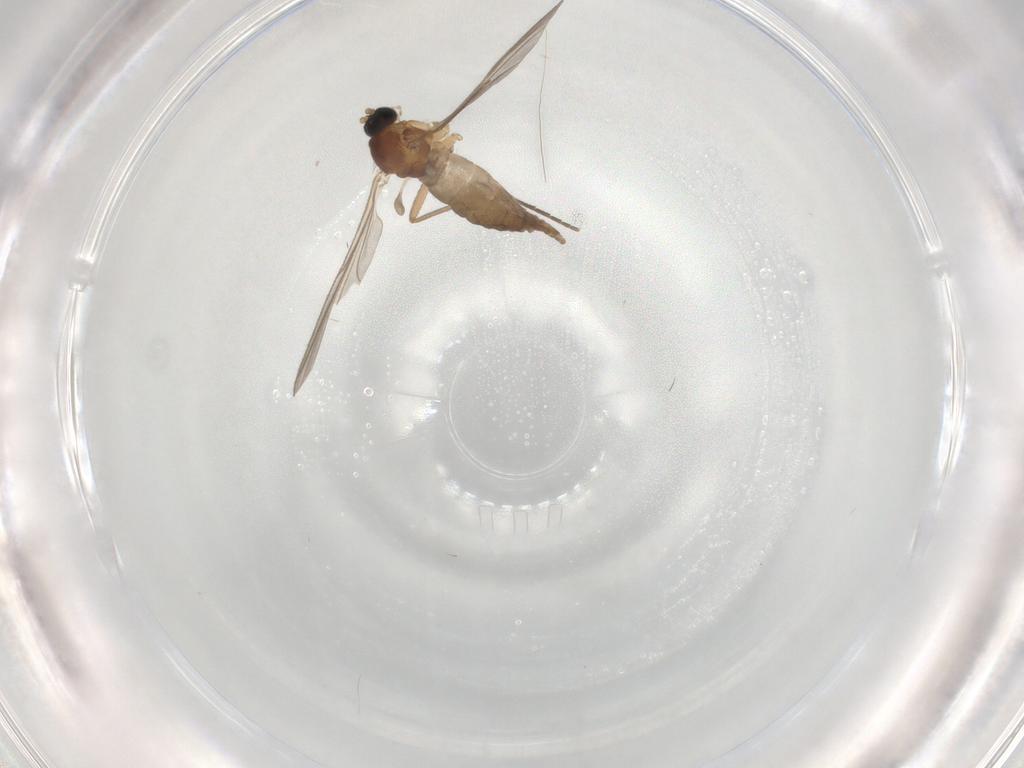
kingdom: Animalia
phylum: Arthropoda
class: Insecta
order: Diptera
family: Sciaridae
